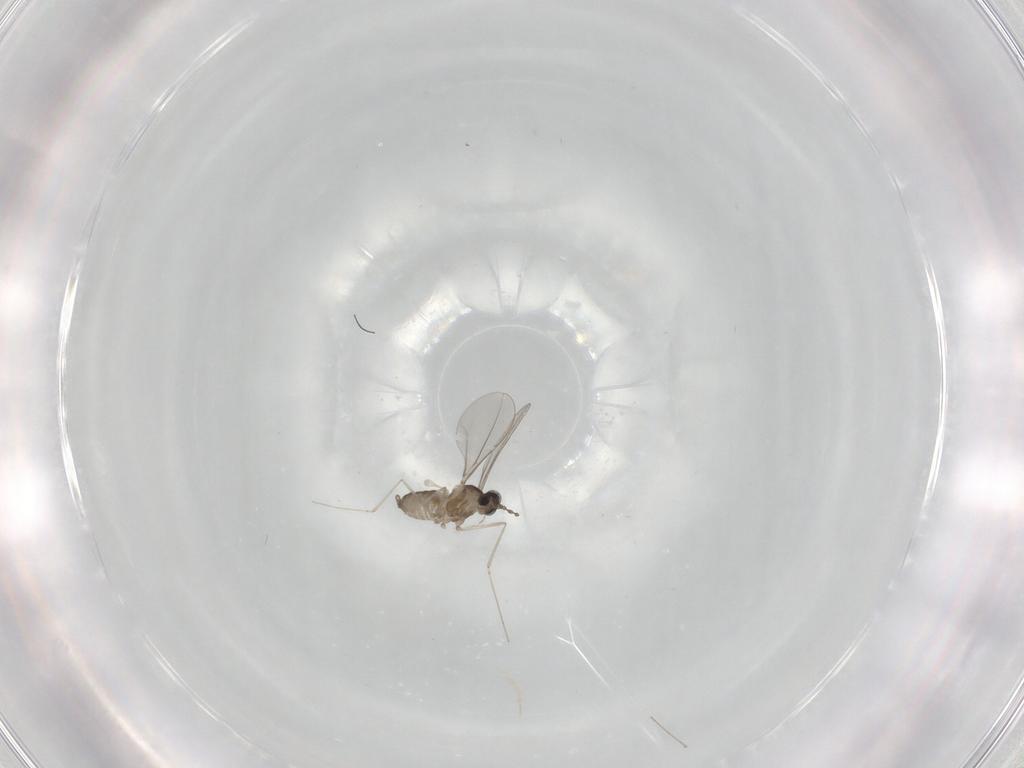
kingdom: Animalia
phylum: Arthropoda
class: Insecta
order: Diptera
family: Cecidomyiidae
